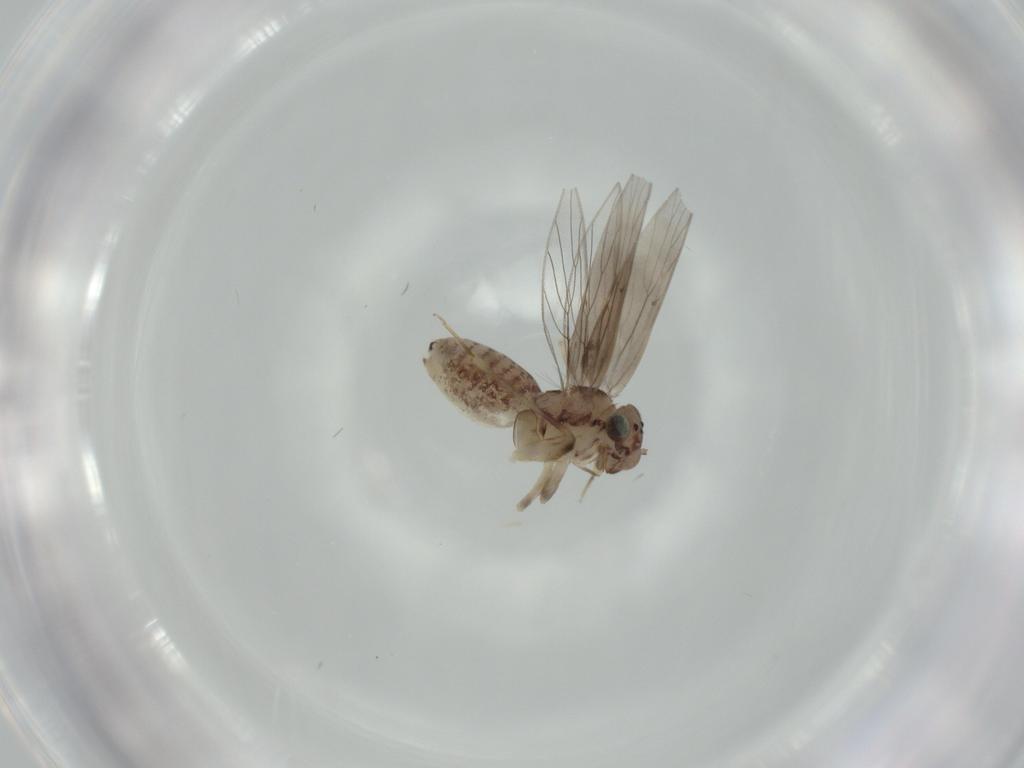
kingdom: Animalia
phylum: Arthropoda
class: Insecta
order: Psocodea
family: Lepidopsocidae
